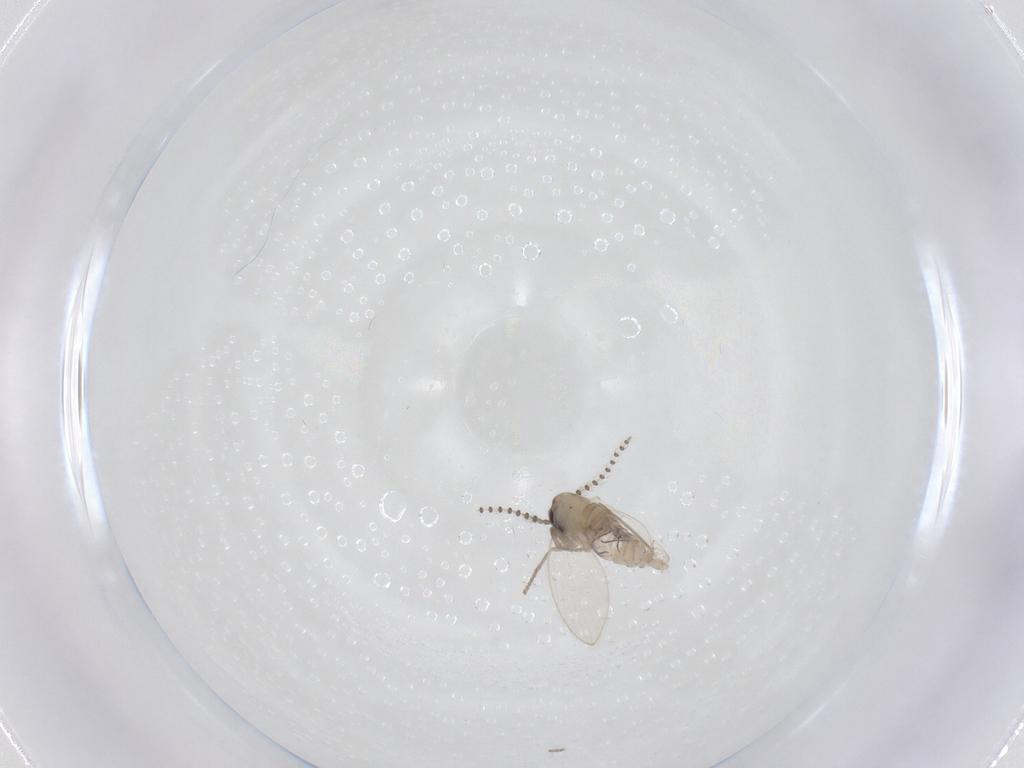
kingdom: Animalia
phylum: Arthropoda
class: Insecta
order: Diptera
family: Psychodidae
